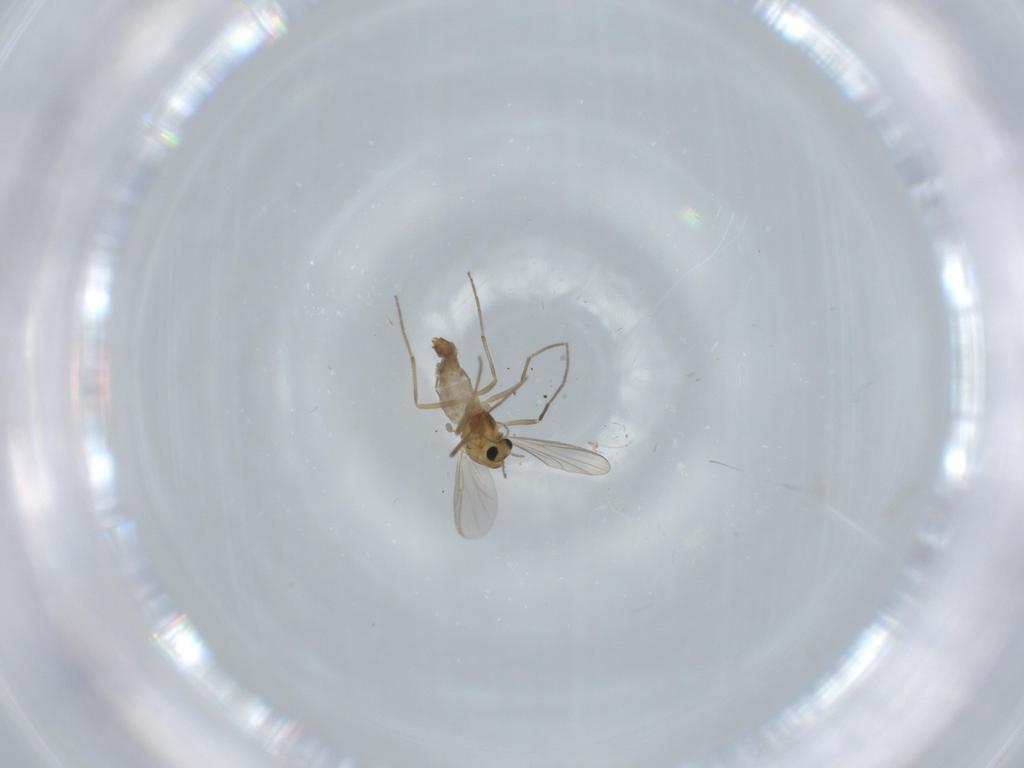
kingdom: Animalia
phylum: Arthropoda
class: Insecta
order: Diptera
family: Chironomidae
